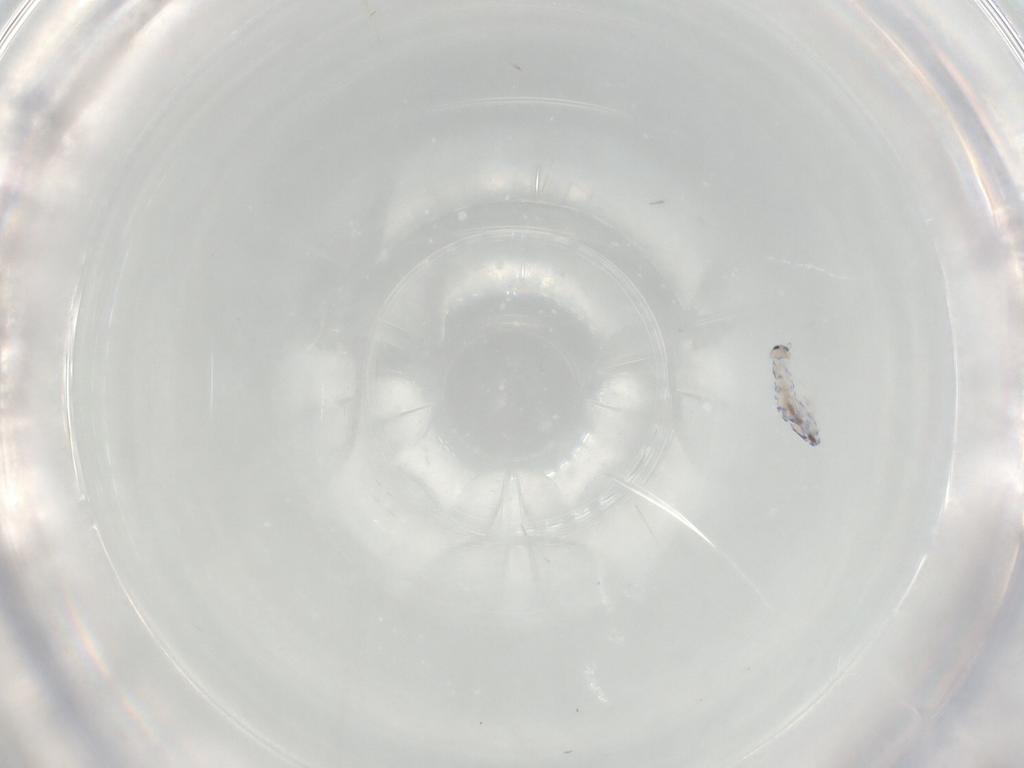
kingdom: Animalia
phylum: Arthropoda
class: Collembola
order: Entomobryomorpha
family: Entomobryidae
